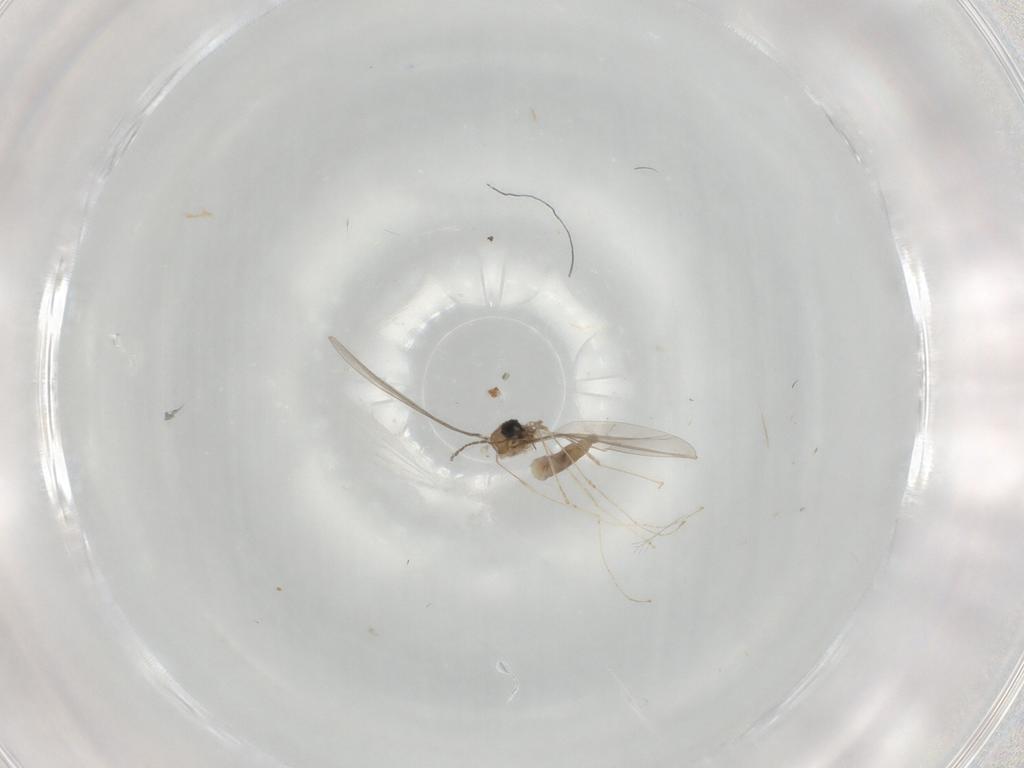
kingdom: Animalia
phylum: Arthropoda
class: Insecta
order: Diptera
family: Cecidomyiidae
